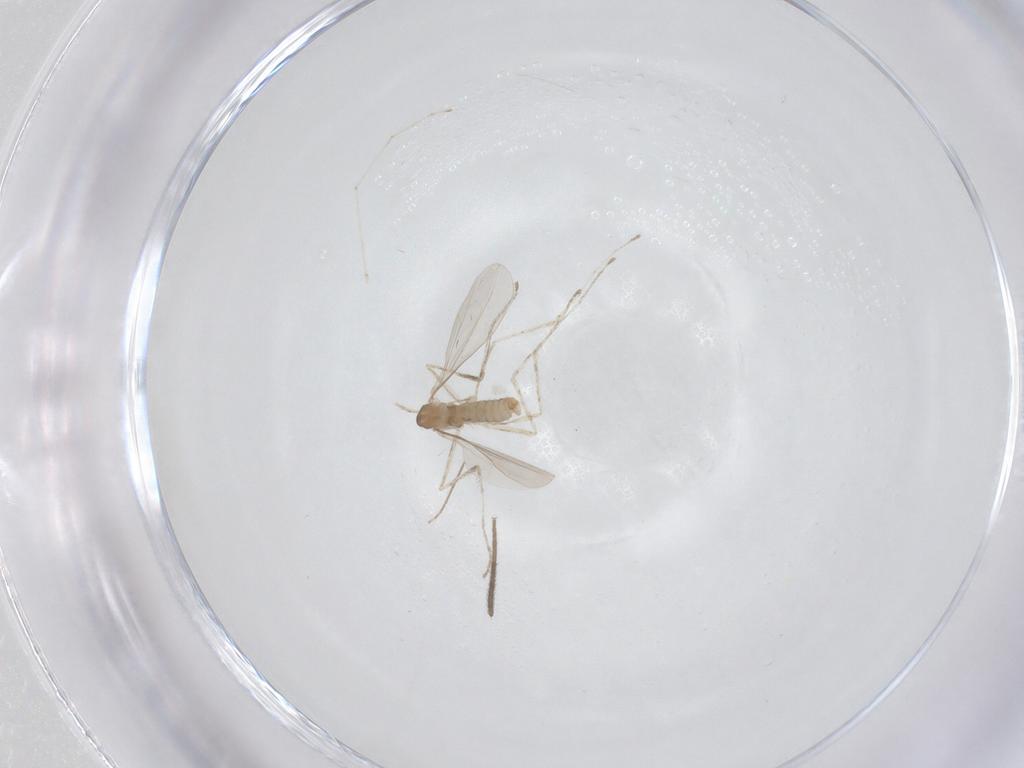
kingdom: Animalia
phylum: Arthropoda
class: Insecta
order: Diptera
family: Cecidomyiidae
